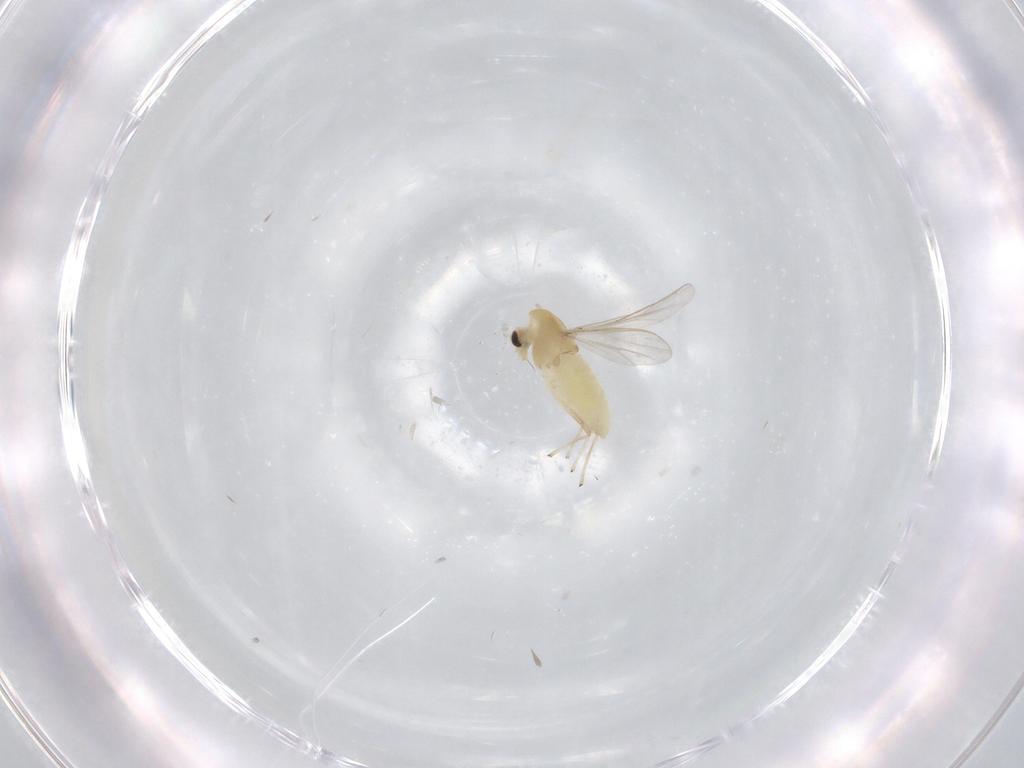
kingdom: Animalia
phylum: Arthropoda
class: Insecta
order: Diptera
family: Chironomidae
